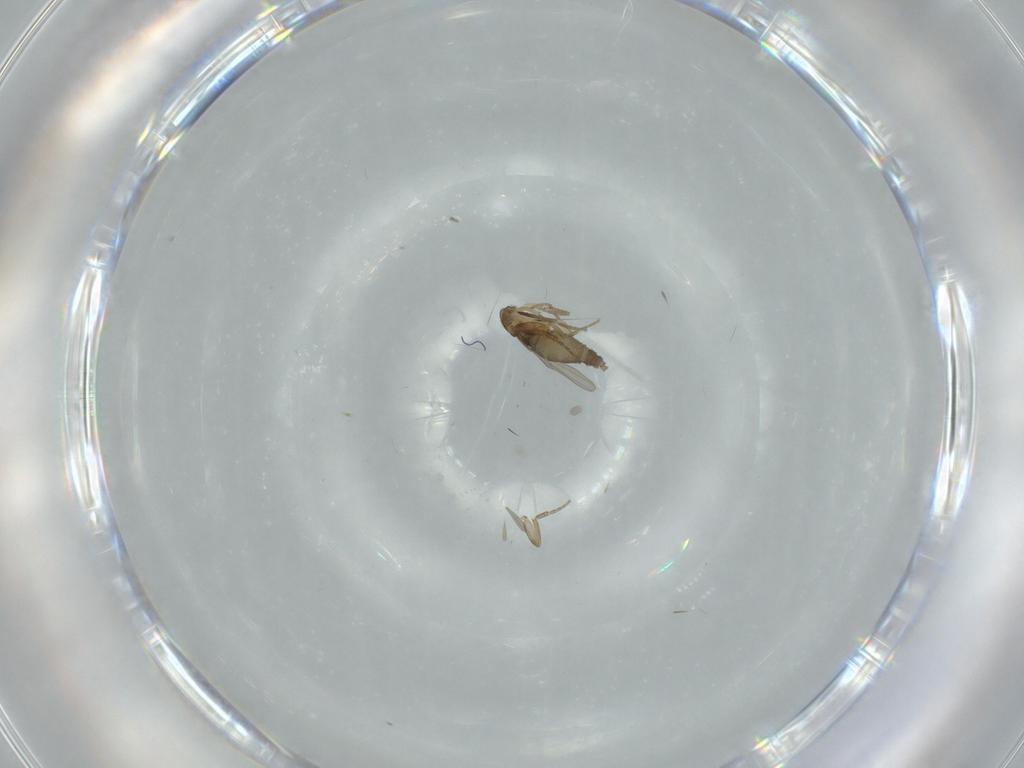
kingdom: Animalia
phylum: Arthropoda
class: Insecta
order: Diptera
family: Phoridae
